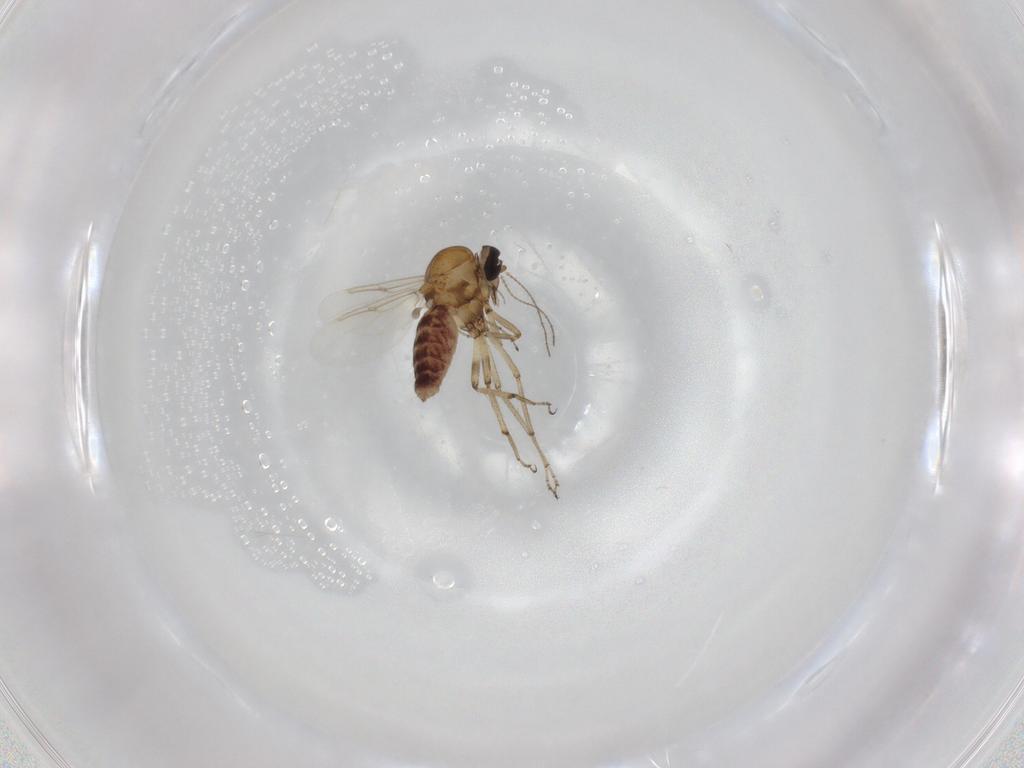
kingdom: Animalia
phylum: Arthropoda
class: Insecta
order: Diptera
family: Ceratopogonidae
